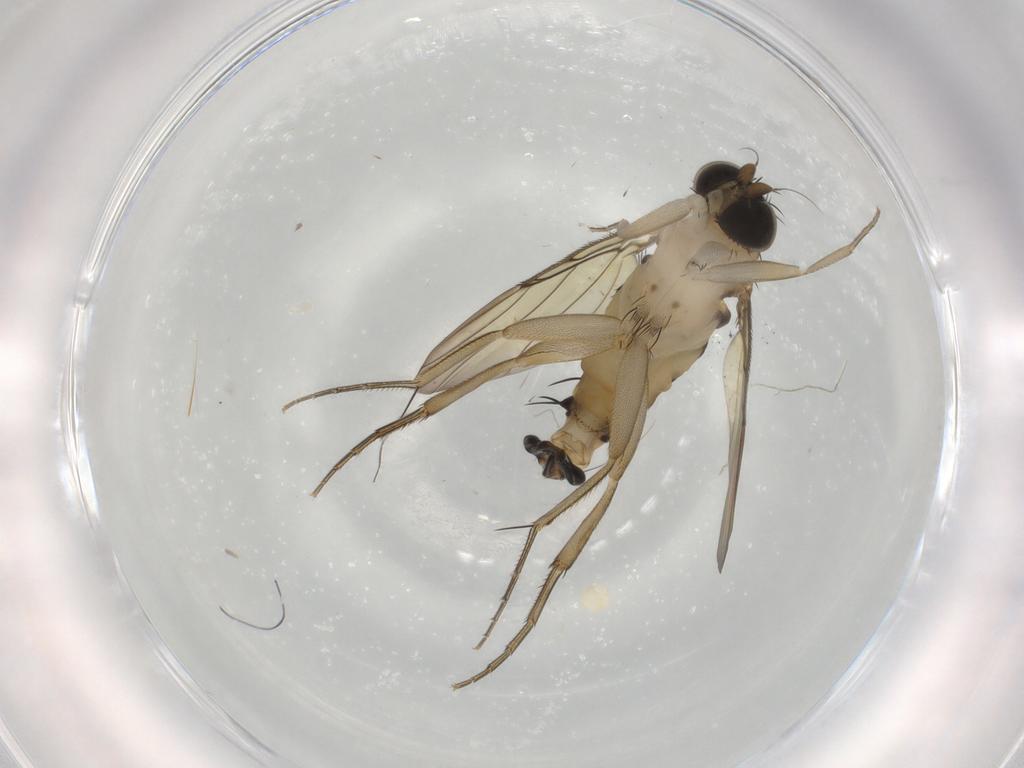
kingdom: Animalia
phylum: Arthropoda
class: Insecta
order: Diptera
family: Phoridae
